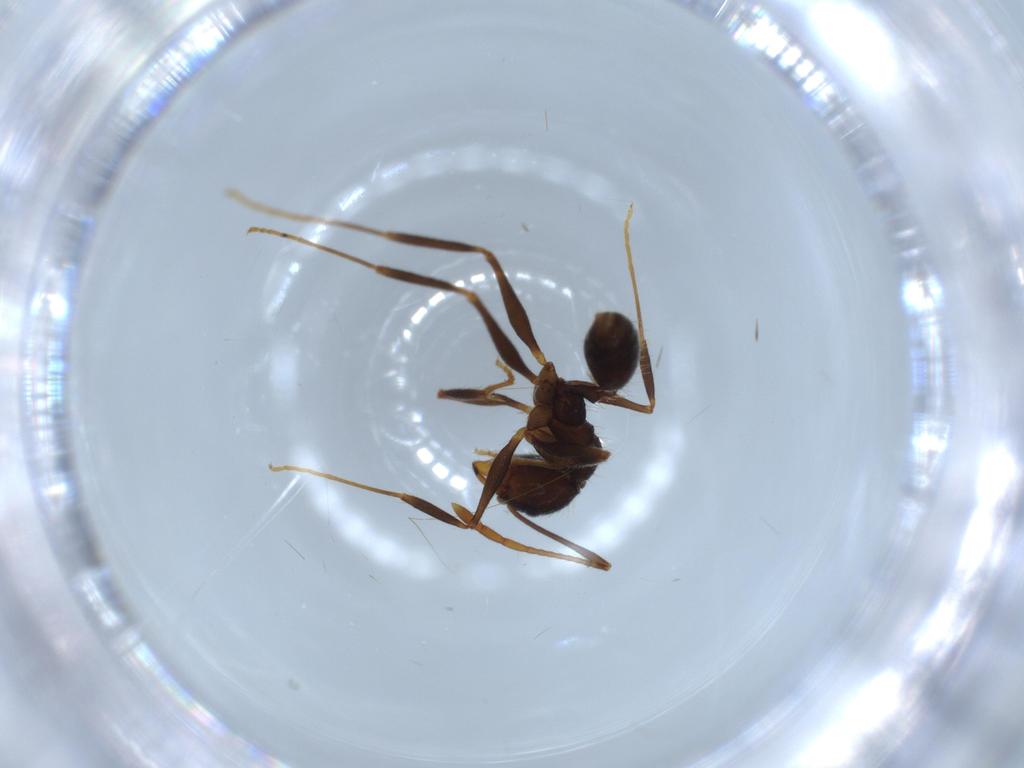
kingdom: Animalia
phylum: Arthropoda
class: Insecta
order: Hymenoptera
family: Formicidae
